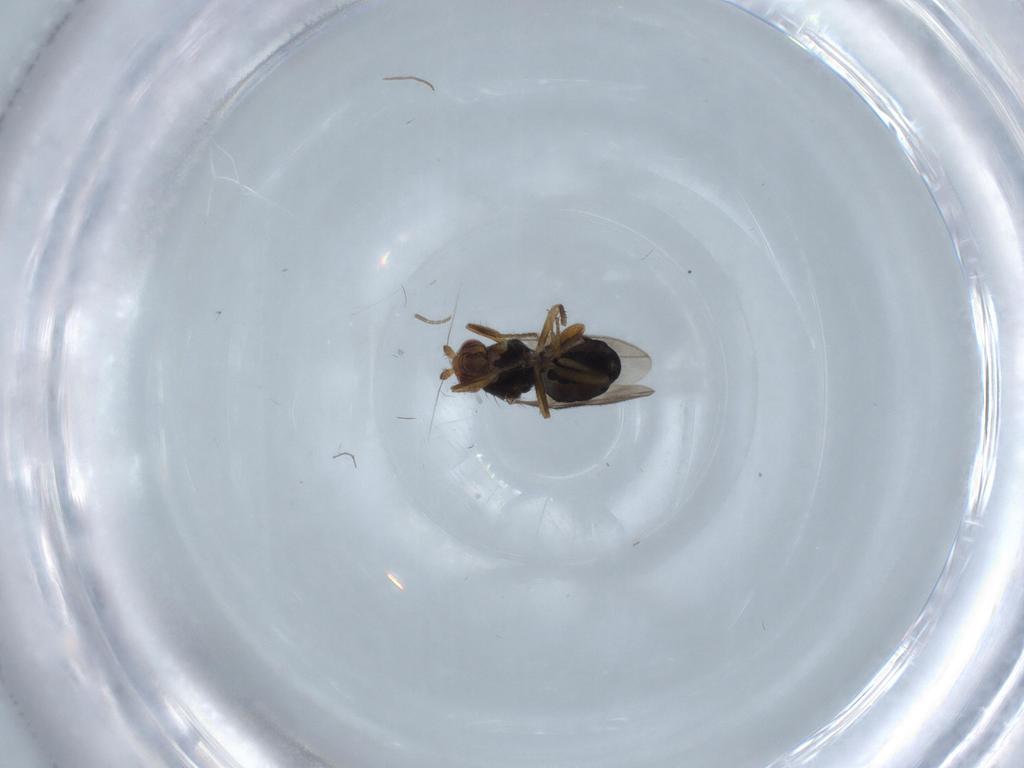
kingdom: Animalia
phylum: Arthropoda
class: Insecta
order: Diptera
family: Sphaeroceridae
